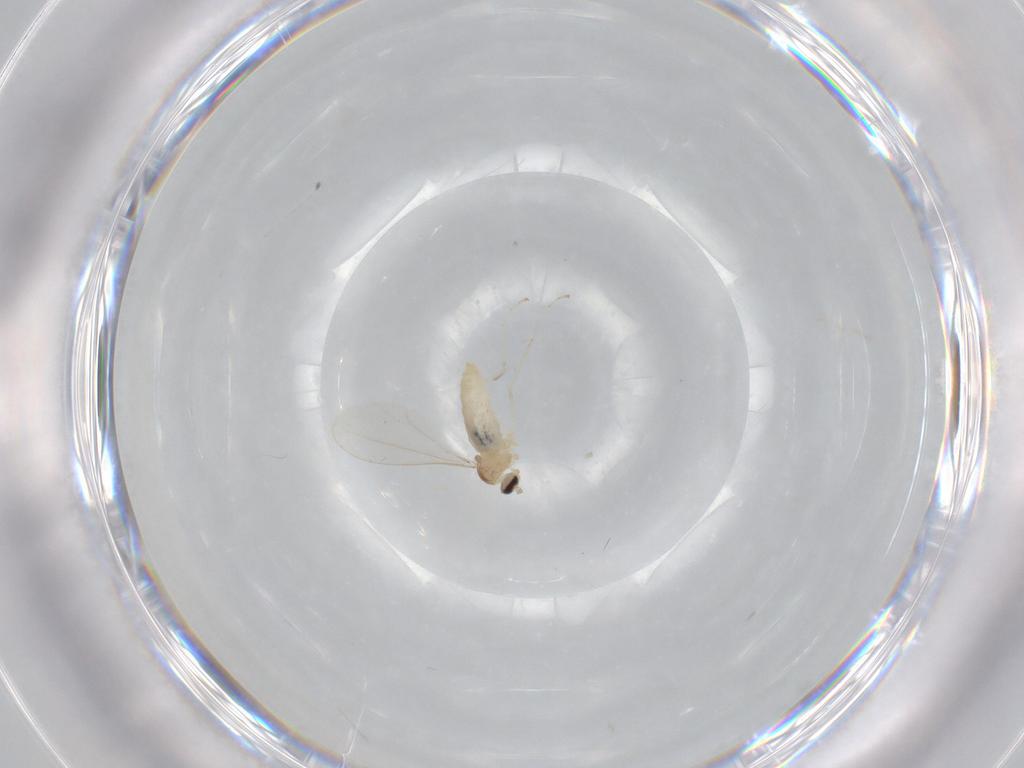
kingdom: Animalia
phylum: Arthropoda
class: Insecta
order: Diptera
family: Cecidomyiidae
